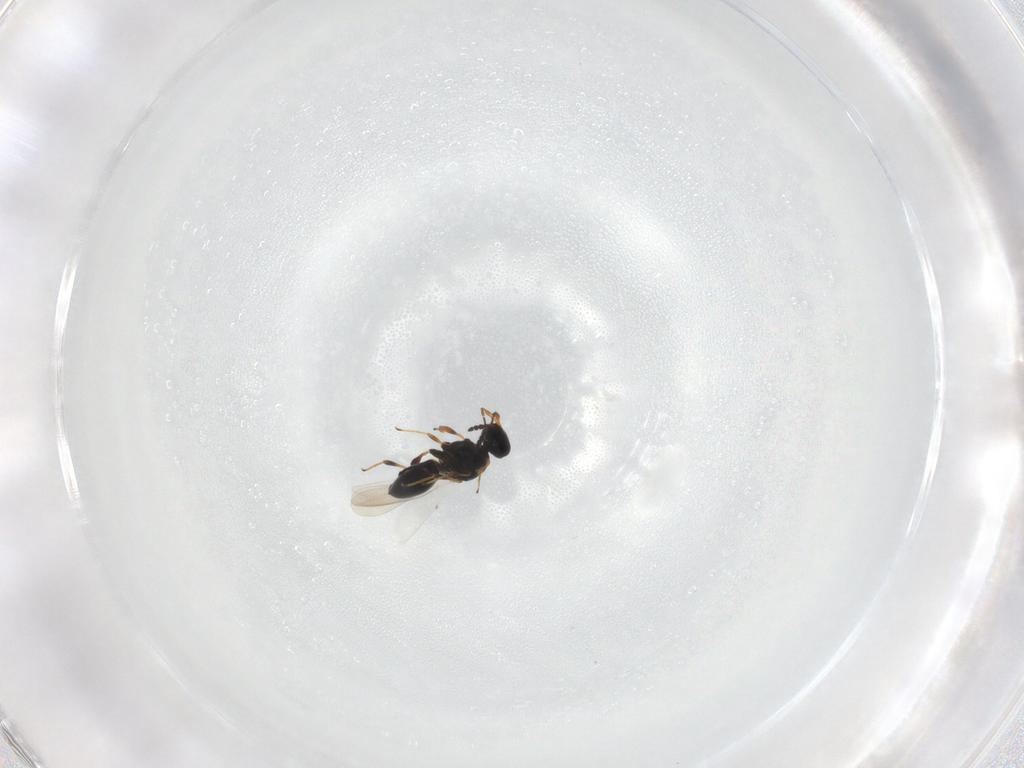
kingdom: Animalia
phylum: Arthropoda
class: Insecta
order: Hymenoptera
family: Platygastridae
